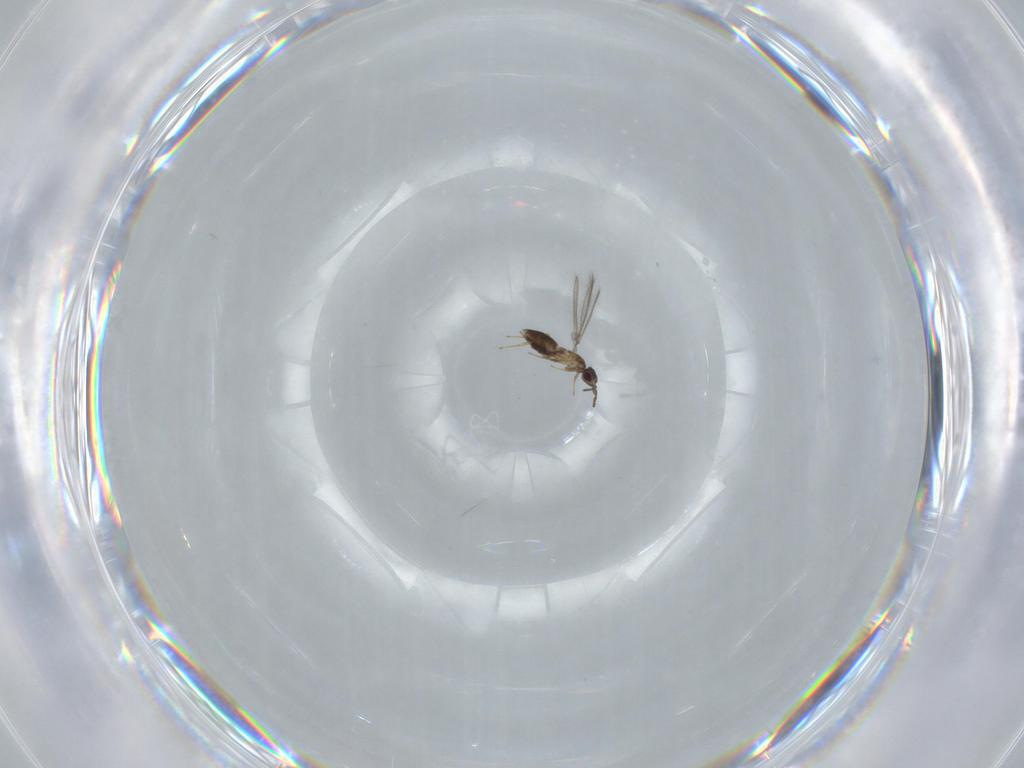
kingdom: Animalia
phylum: Arthropoda
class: Insecta
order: Hymenoptera
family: Mymaridae
